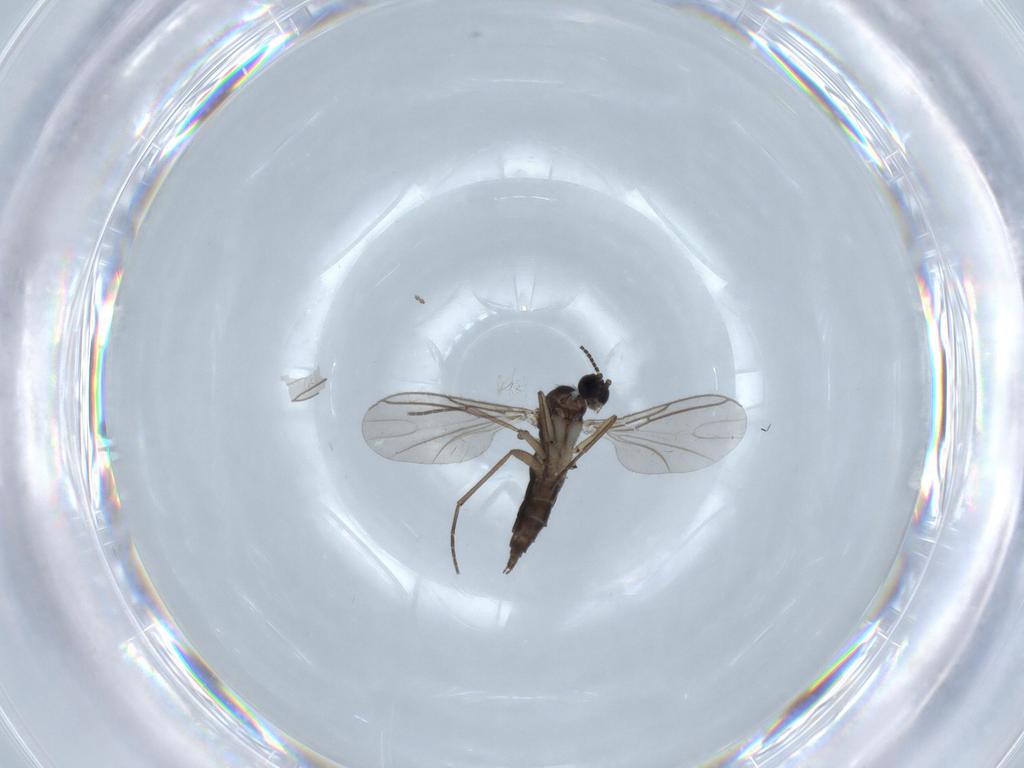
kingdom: Animalia
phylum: Arthropoda
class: Insecta
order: Diptera
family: Sciaridae
